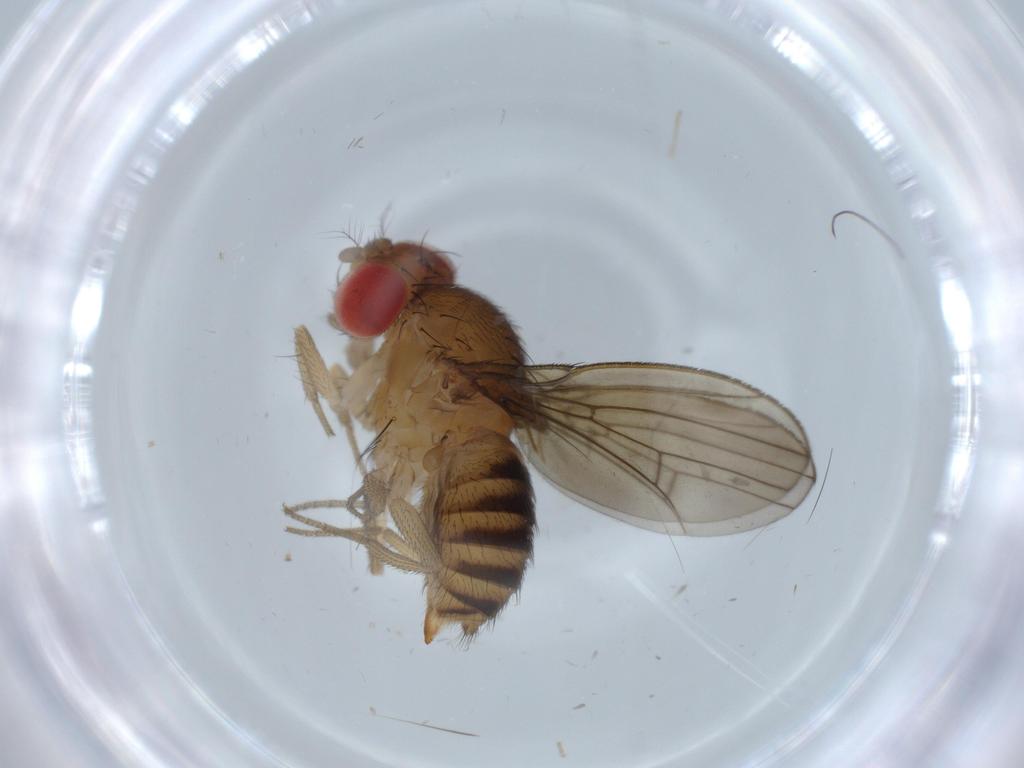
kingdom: Animalia
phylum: Arthropoda
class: Insecta
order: Diptera
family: Drosophilidae
